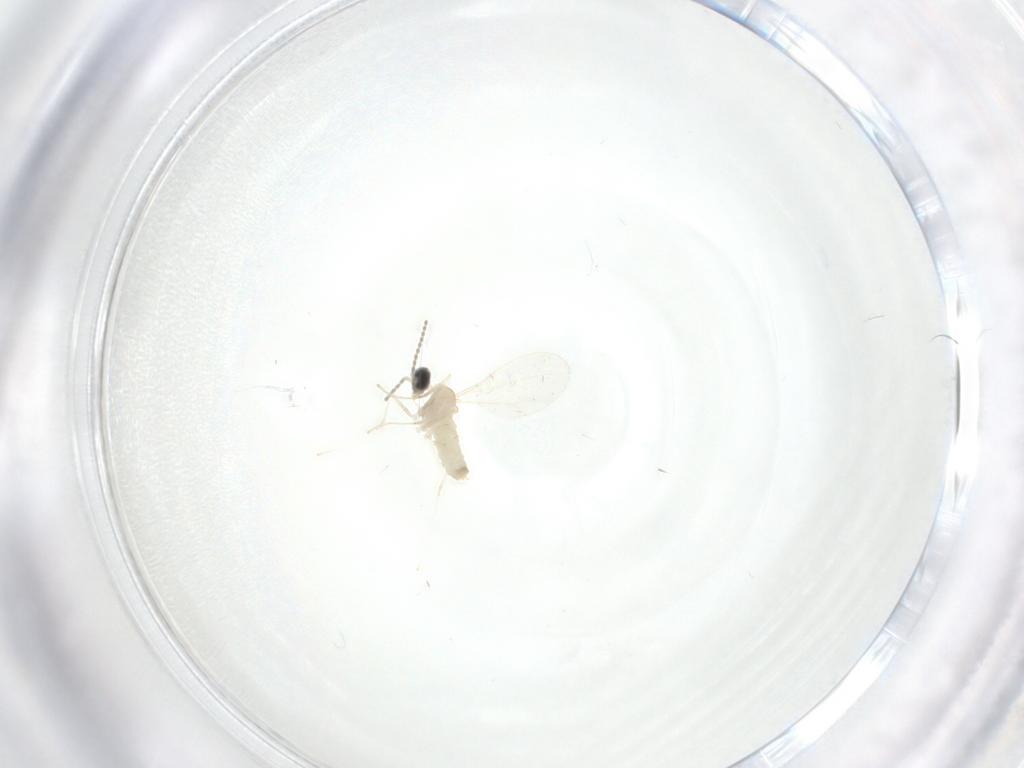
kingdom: Animalia
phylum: Arthropoda
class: Insecta
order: Diptera
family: Cecidomyiidae
